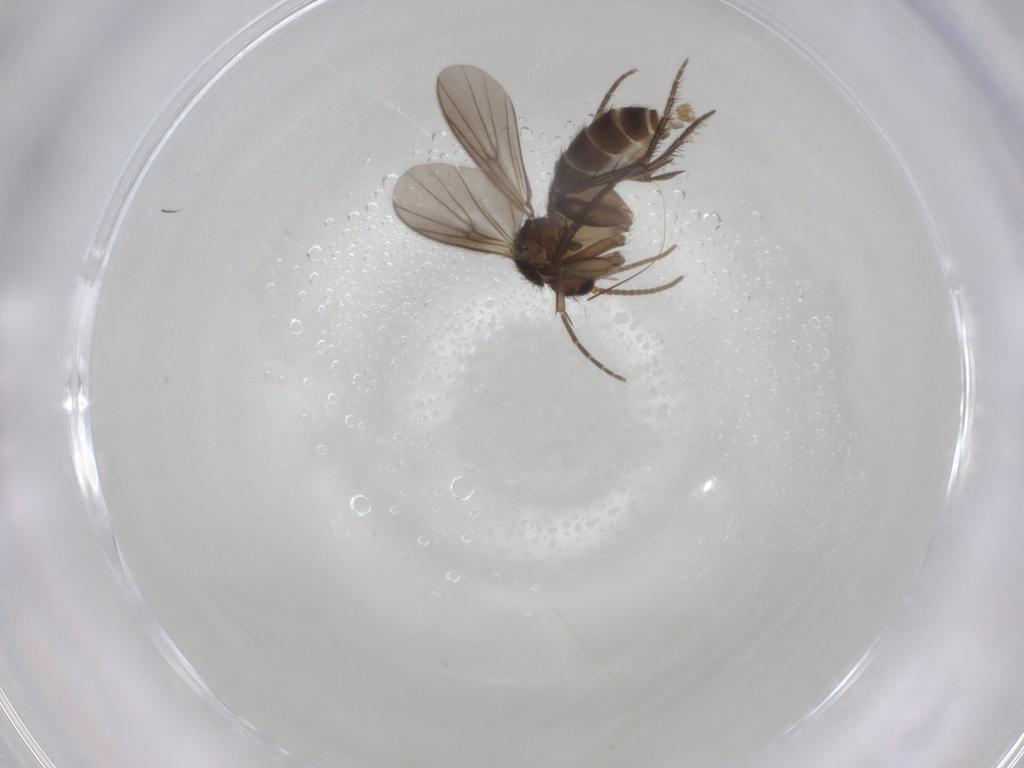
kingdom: Animalia
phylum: Arthropoda
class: Insecta
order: Diptera
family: Mycetophilidae
